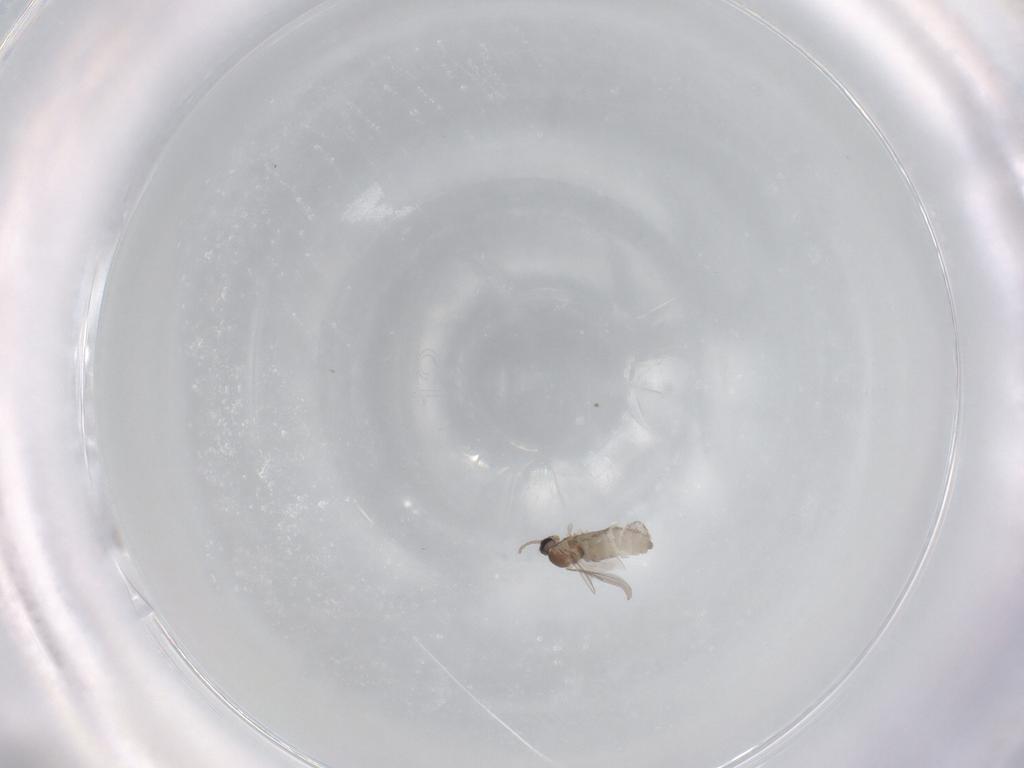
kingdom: Animalia
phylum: Arthropoda
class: Insecta
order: Diptera
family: Cecidomyiidae
